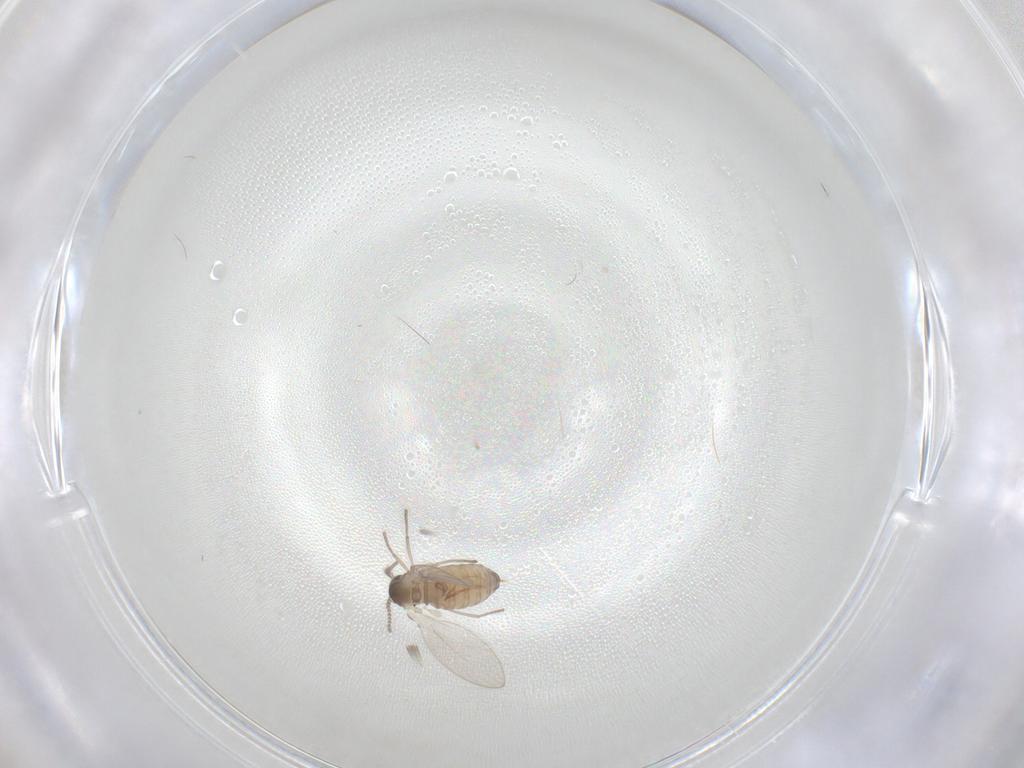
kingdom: Animalia
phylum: Arthropoda
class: Insecta
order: Diptera
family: Psychodidae
